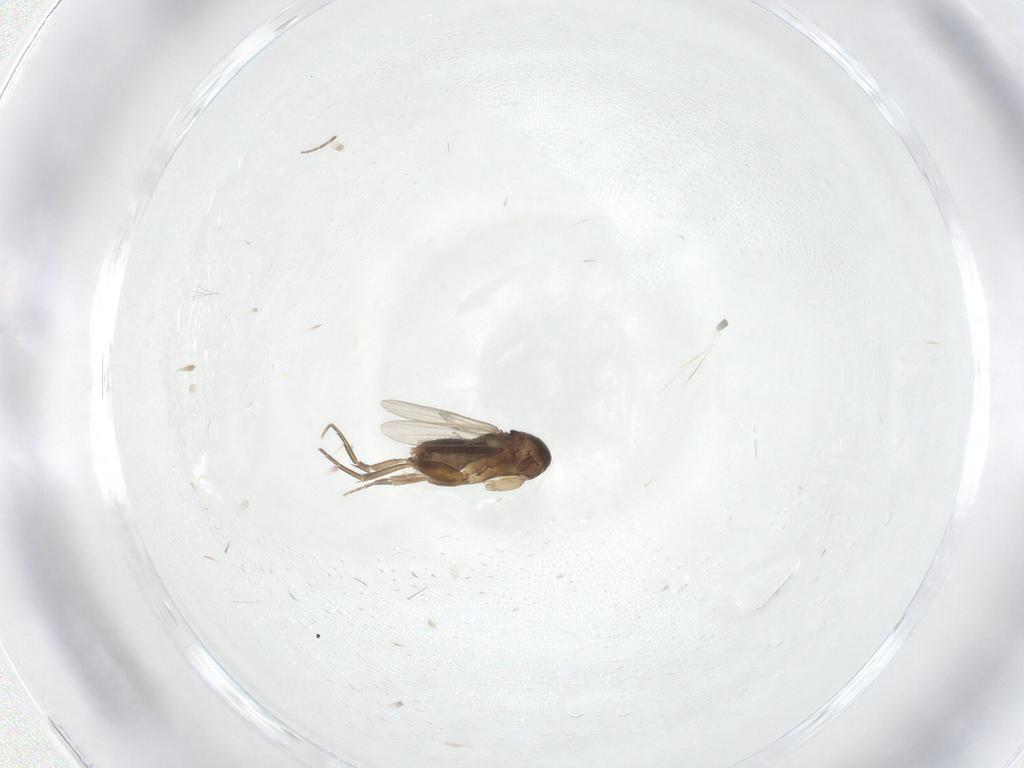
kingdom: Animalia
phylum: Arthropoda
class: Insecta
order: Diptera
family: Phoridae
